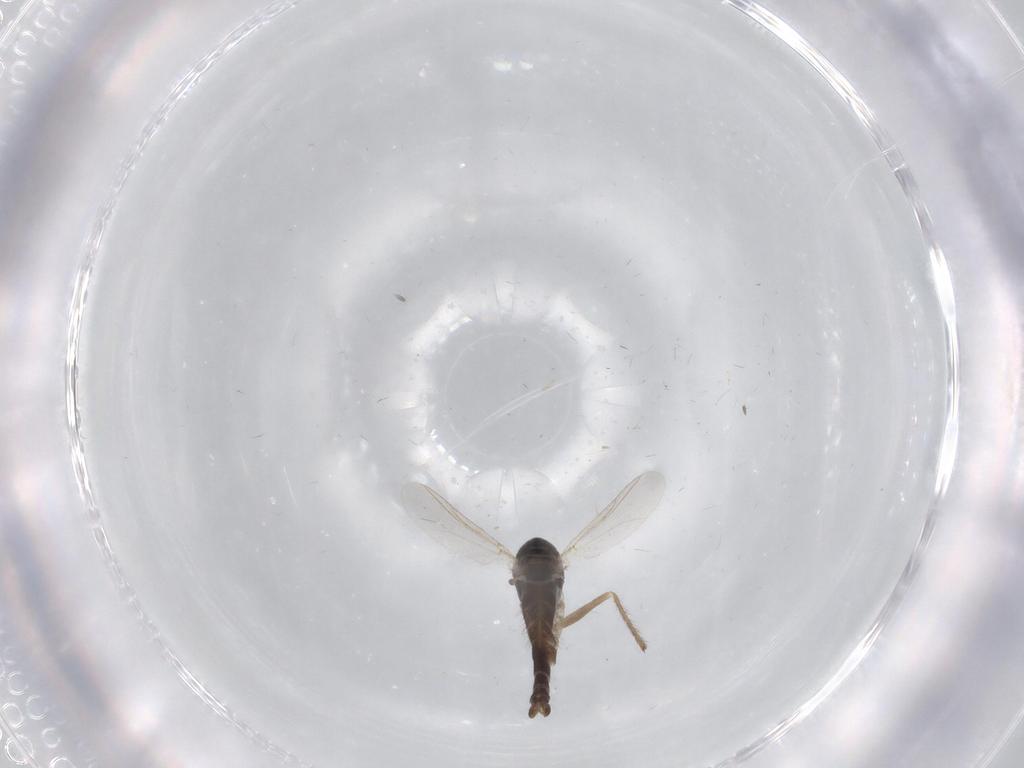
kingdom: Animalia
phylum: Arthropoda
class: Insecta
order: Diptera
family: Chironomidae
